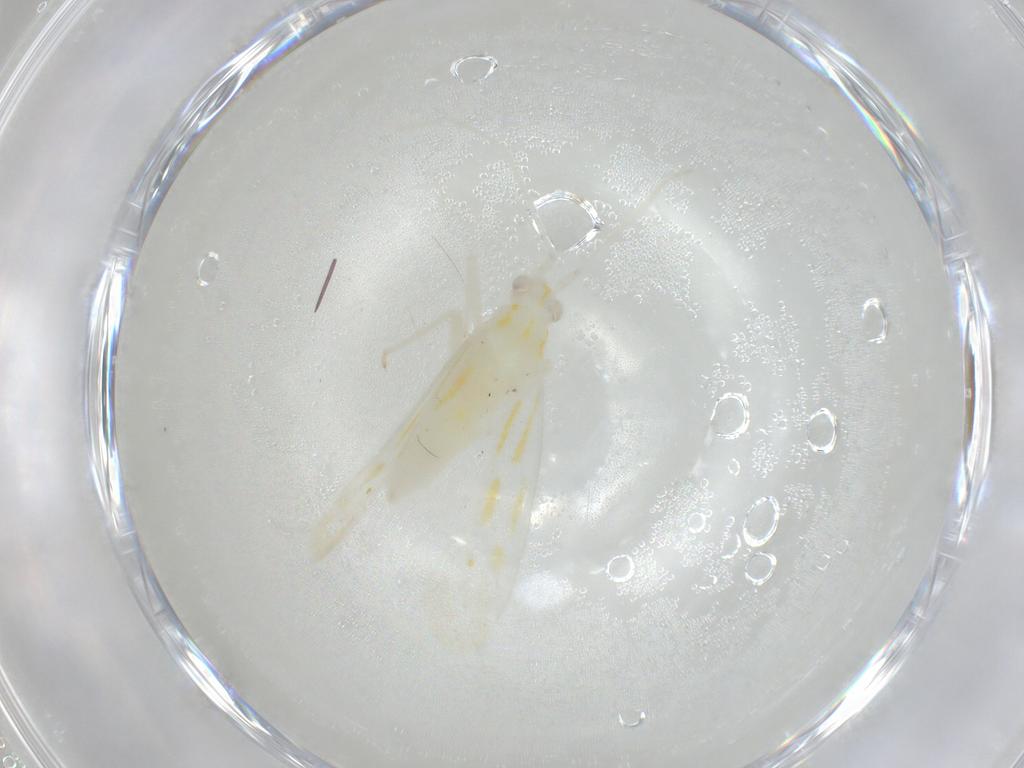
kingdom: Animalia
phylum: Arthropoda
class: Insecta
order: Hemiptera
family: Miridae
